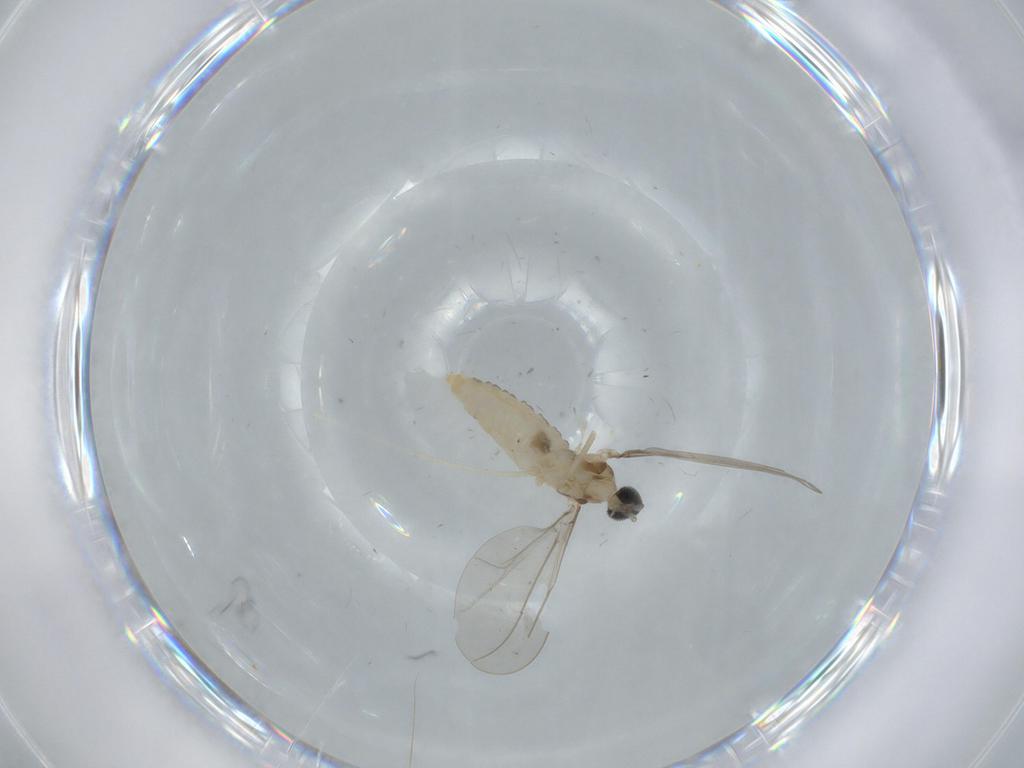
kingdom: Animalia
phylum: Arthropoda
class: Insecta
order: Diptera
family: Cecidomyiidae
